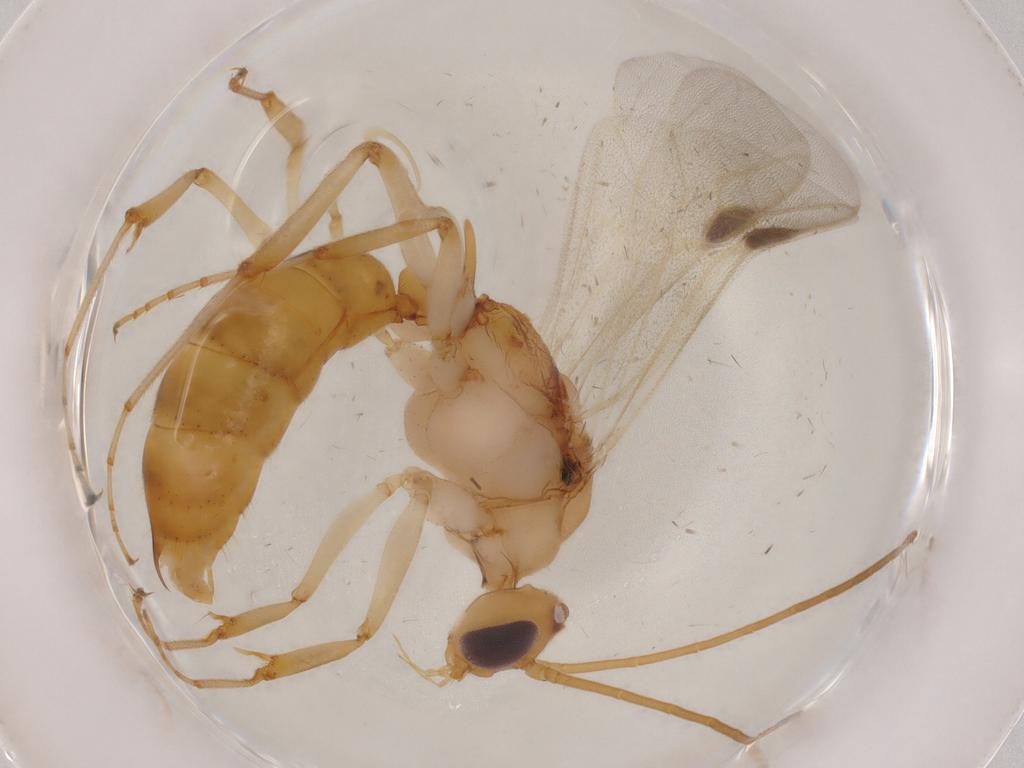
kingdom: Animalia
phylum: Arthropoda
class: Insecta
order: Hymenoptera
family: Formicidae
